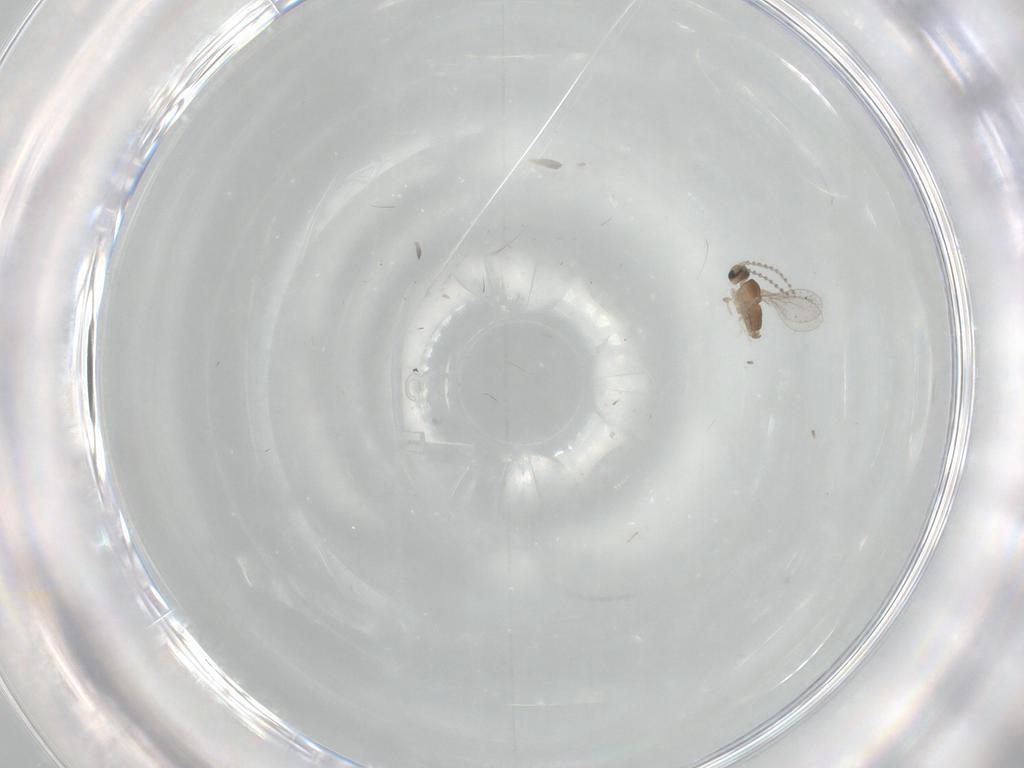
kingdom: Animalia
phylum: Arthropoda
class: Insecta
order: Diptera
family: Cecidomyiidae
